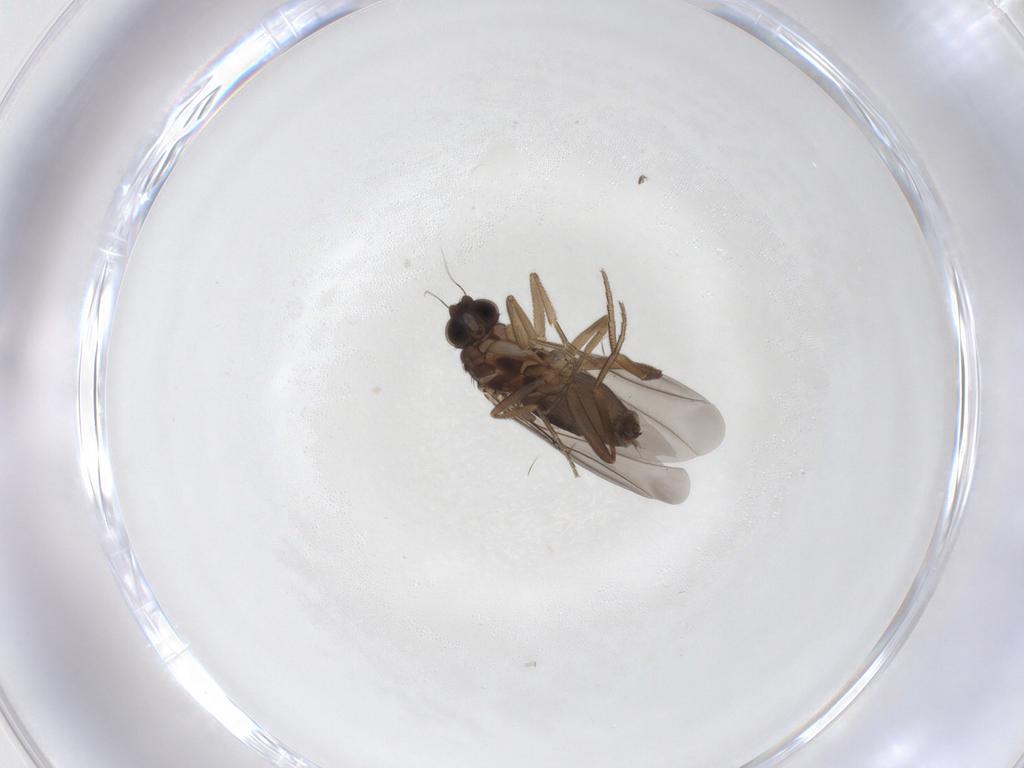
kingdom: Animalia
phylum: Arthropoda
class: Insecta
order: Diptera
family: Phoridae
